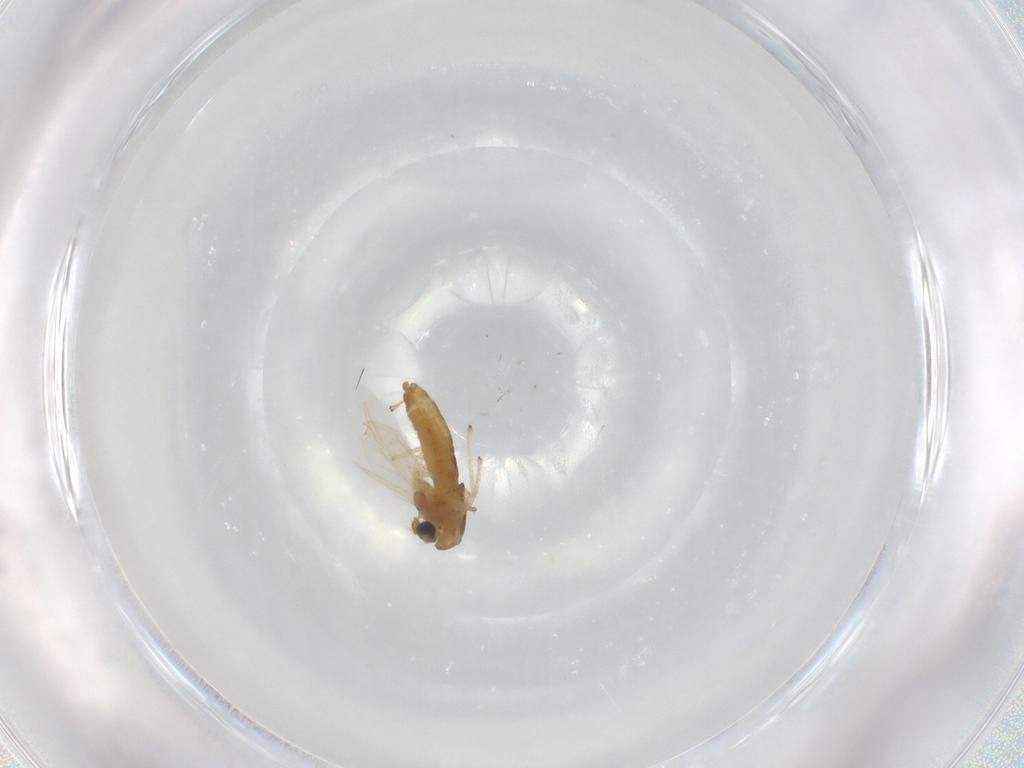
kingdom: Animalia
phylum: Arthropoda
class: Insecta
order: Diptera
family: Chironomidae
